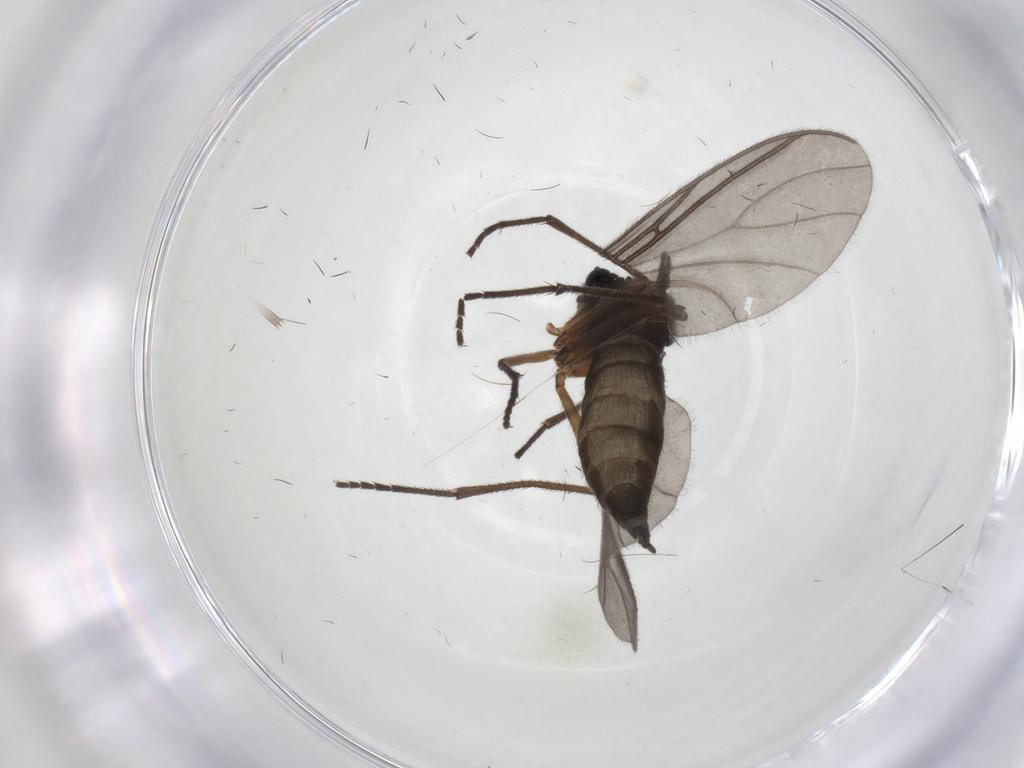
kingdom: Animalia
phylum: Arthropoda
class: Insecta
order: Diptera
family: Sciaridae
